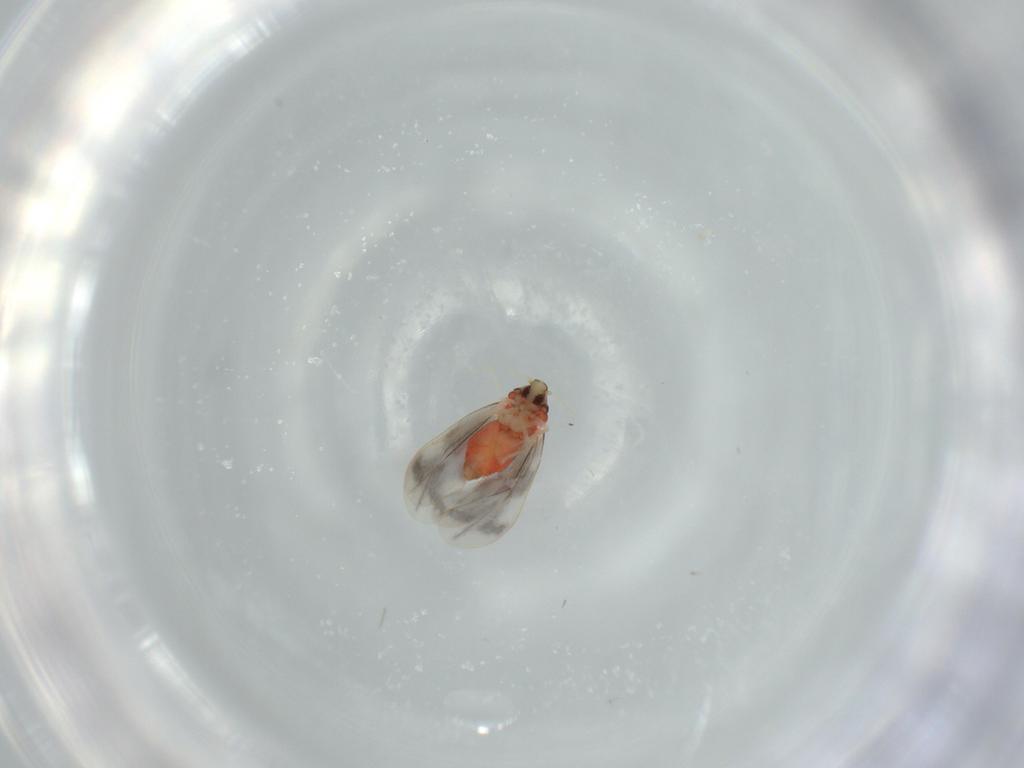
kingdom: Animalia
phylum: Arthropoda
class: Insecta
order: Hemiptera
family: Aleyrodidae
